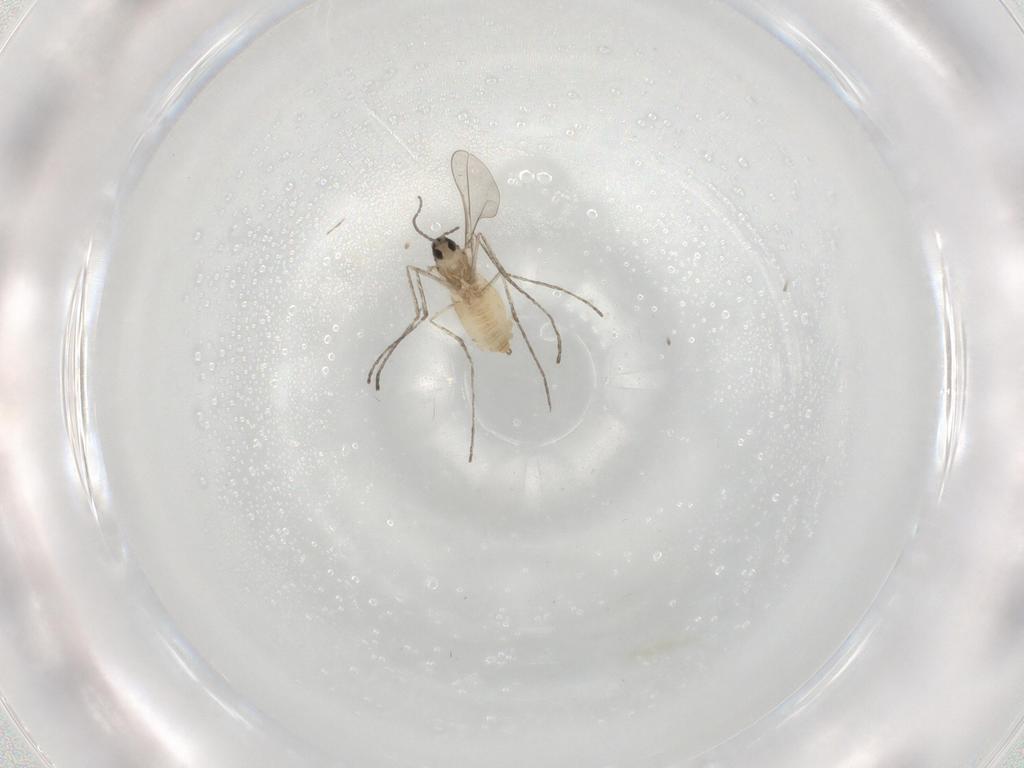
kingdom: Animalia
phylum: Arthropoda
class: Insecta
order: Diptera
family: Cecidomyiidae
